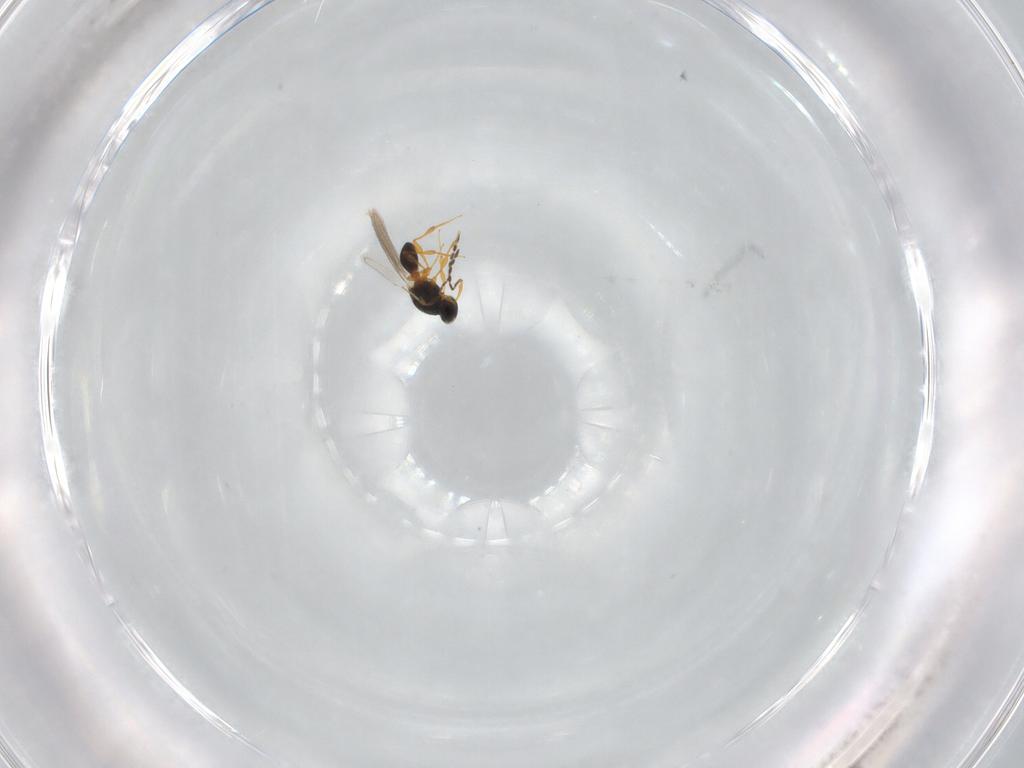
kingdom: Animalia
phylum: Arthropoda
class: Insecta
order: Hymenoptera
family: Platygastridae
